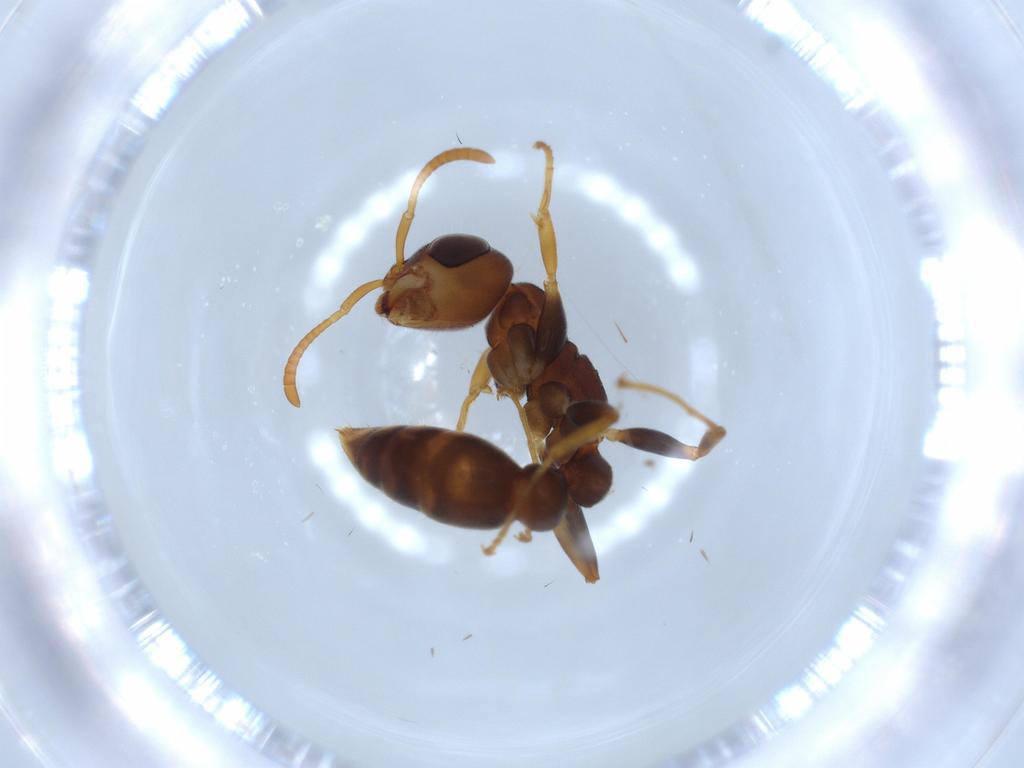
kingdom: Animalia
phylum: Arthropoda
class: Insecta
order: Hymenoptera
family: Formicidae
